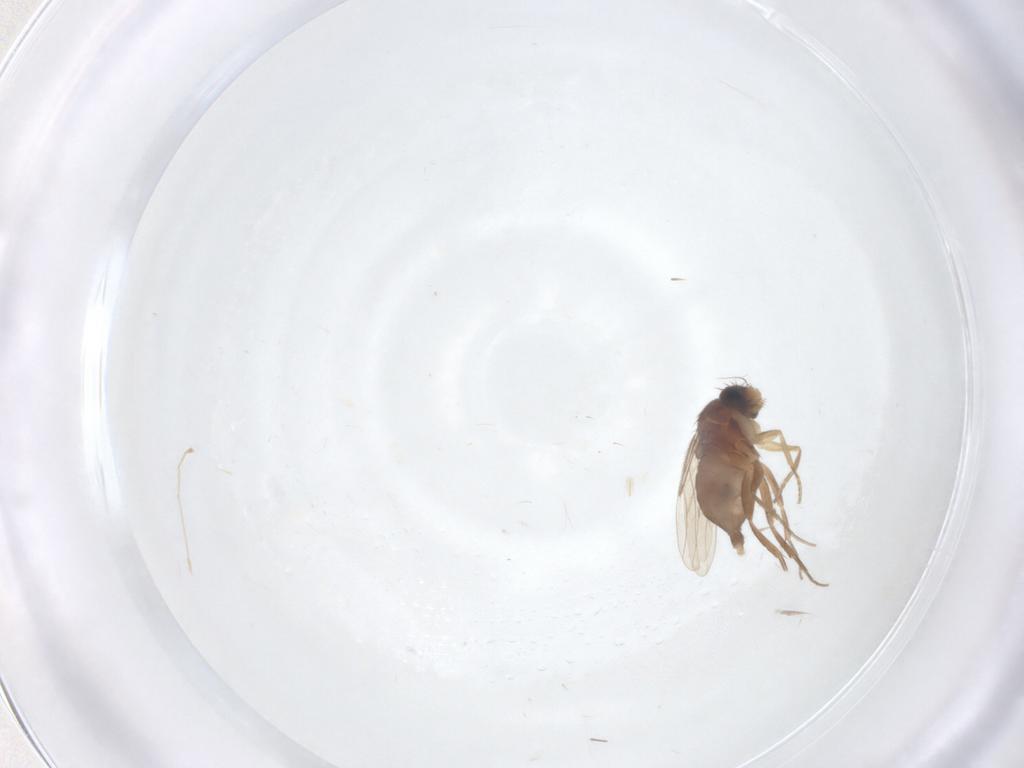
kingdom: Animalia
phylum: Arthropoda
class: Insecta
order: Diptera
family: Phoridae
